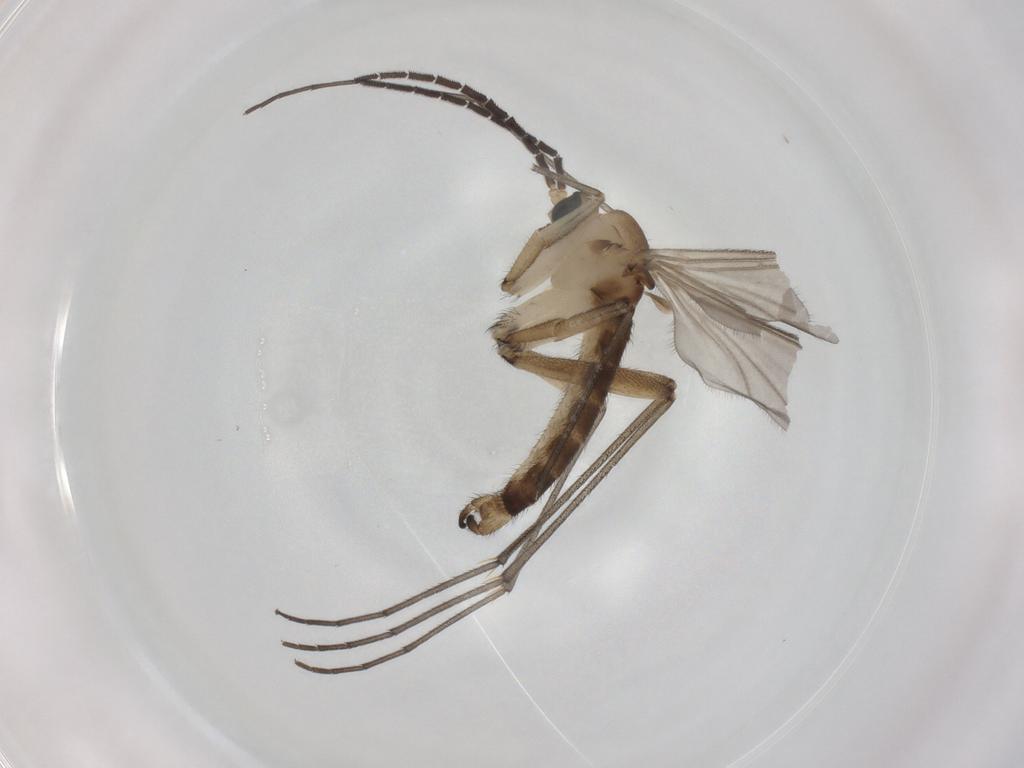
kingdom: Animalia
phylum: Arthropoda
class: Insecta
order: Diptera
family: Sciaridae
